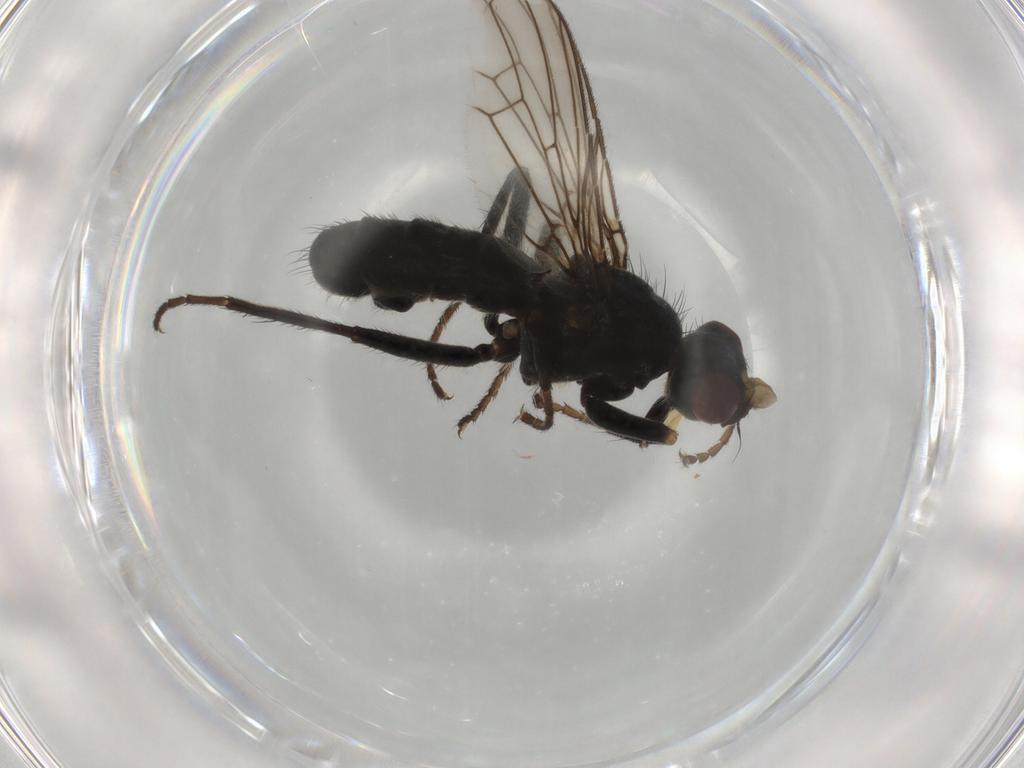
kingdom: Animalia
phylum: Arthropoda
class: Insecta
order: Diptera
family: Scathophagidae
